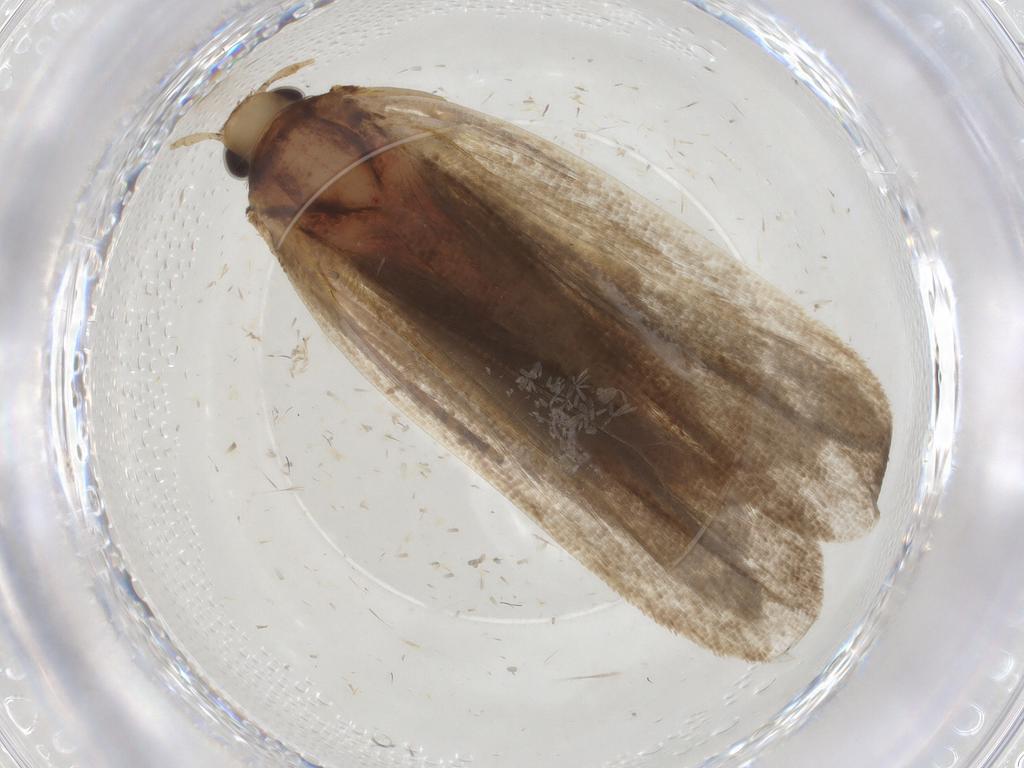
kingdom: Animalia
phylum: Arthropoda
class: Insecta
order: Lepidoptera
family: Autostichidae
